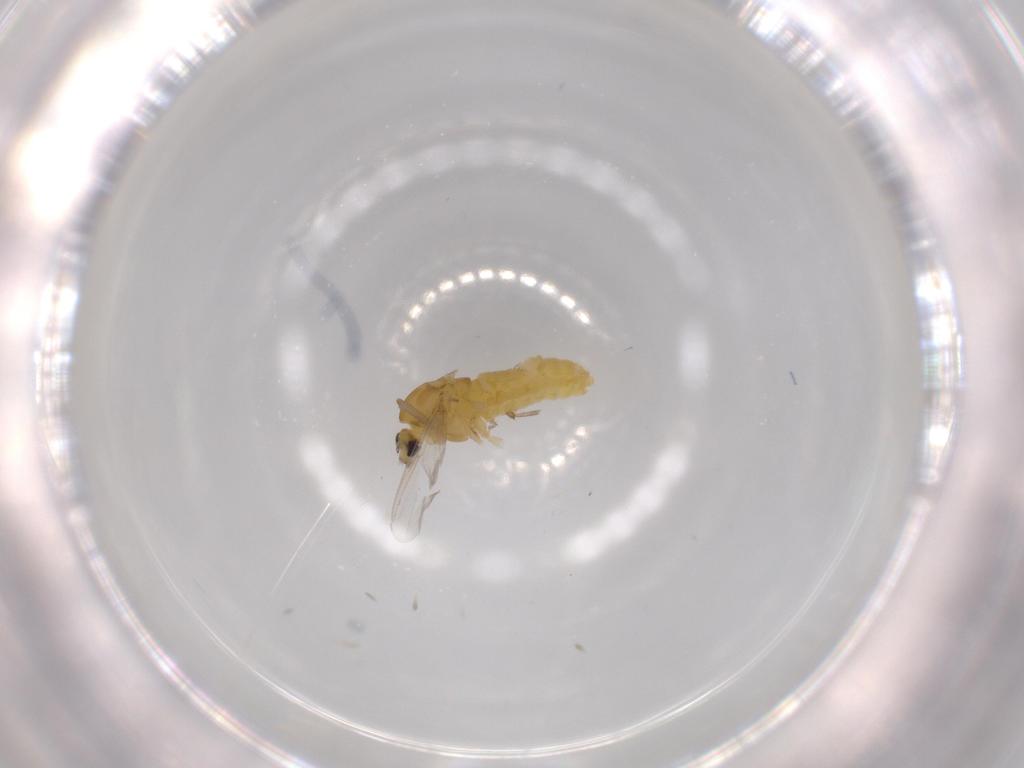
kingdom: Animalia
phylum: Arthropoda
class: Insecta
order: Diptera
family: Chironomidae
